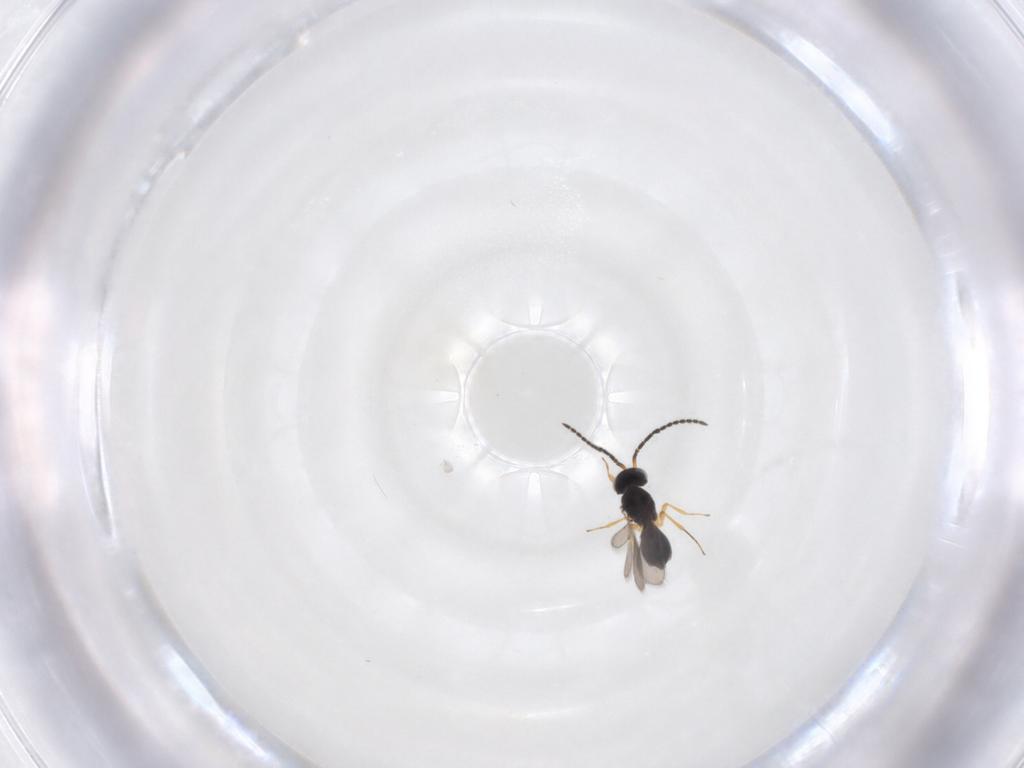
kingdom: Animalia
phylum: Arthropoda
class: Insecta
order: Hymenoptera
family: Scelionidae
